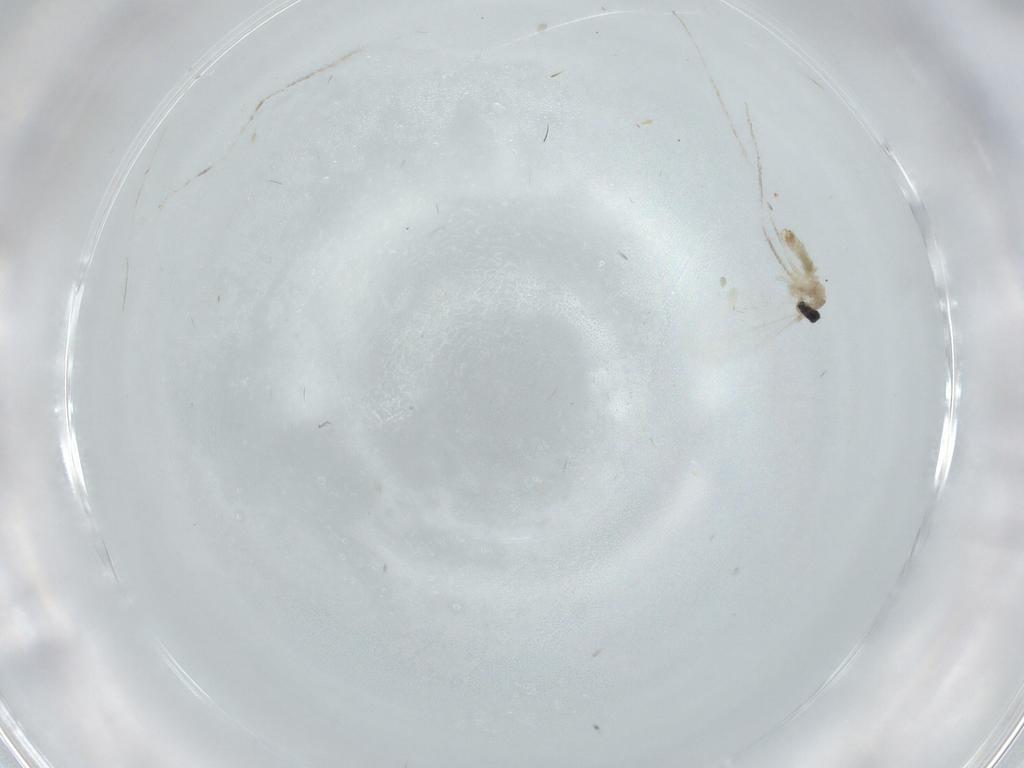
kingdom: Animalia
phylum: Arthropoda
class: Insecta
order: Diptera
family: Cecidomyiidae
